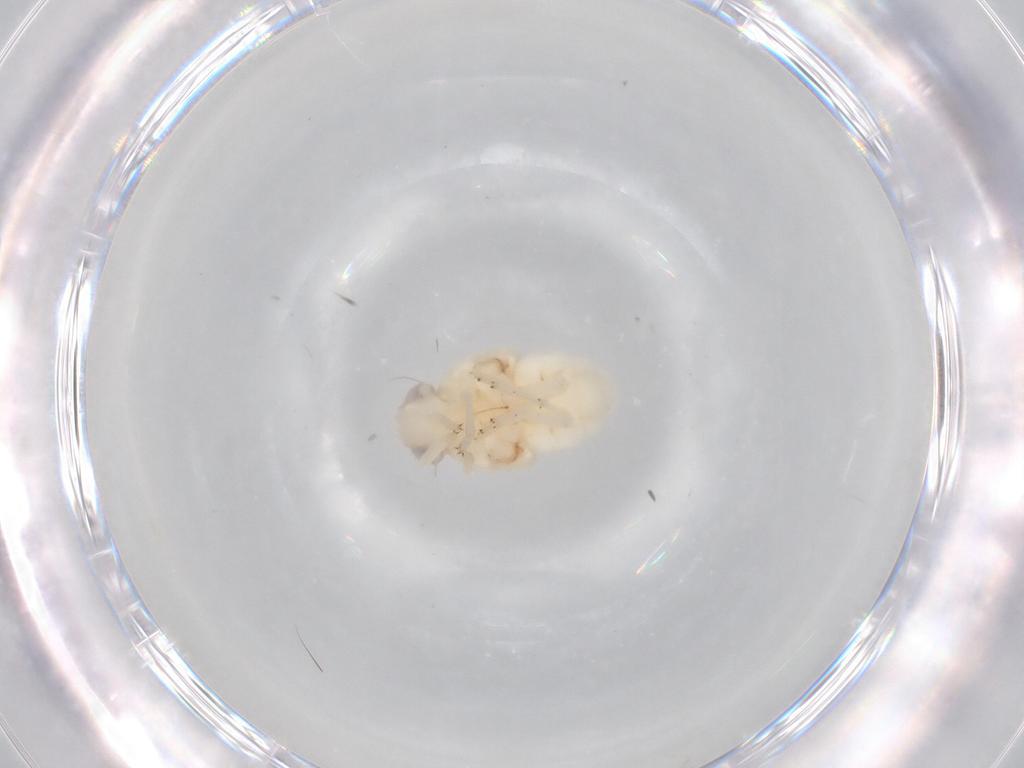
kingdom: Animalia
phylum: Arthropoda
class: Insecta
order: Hemiptera
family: Nogodinidae
